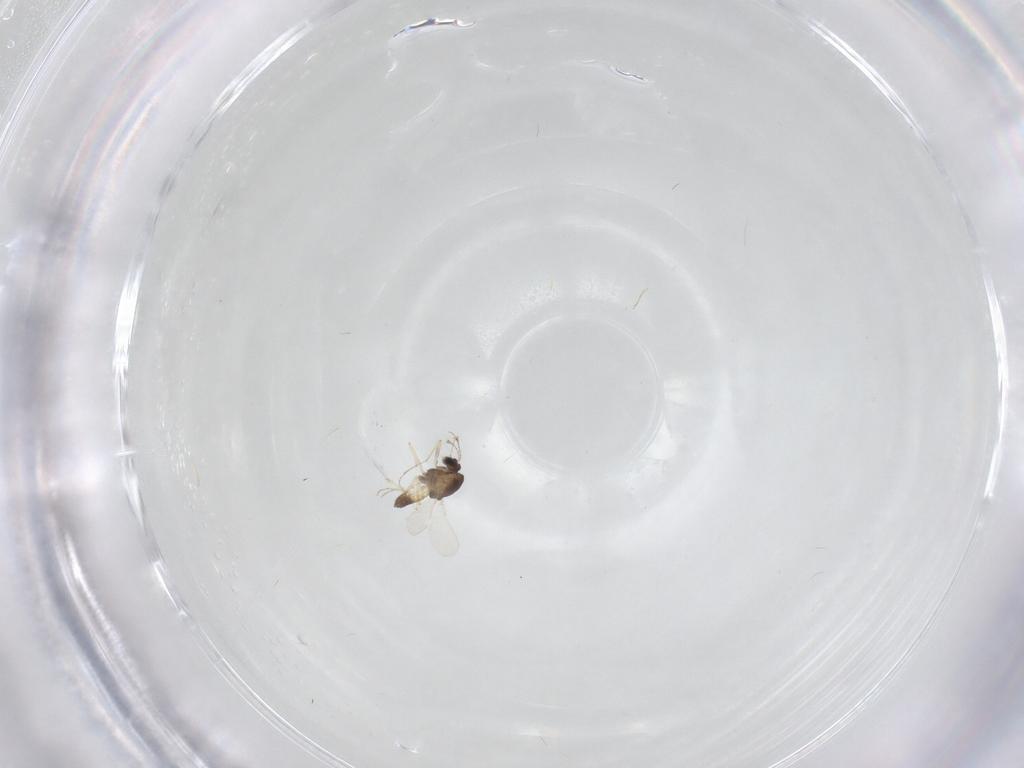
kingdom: Animalia
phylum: Arthropoda
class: Insecta
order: Diptera
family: Chironomidae
